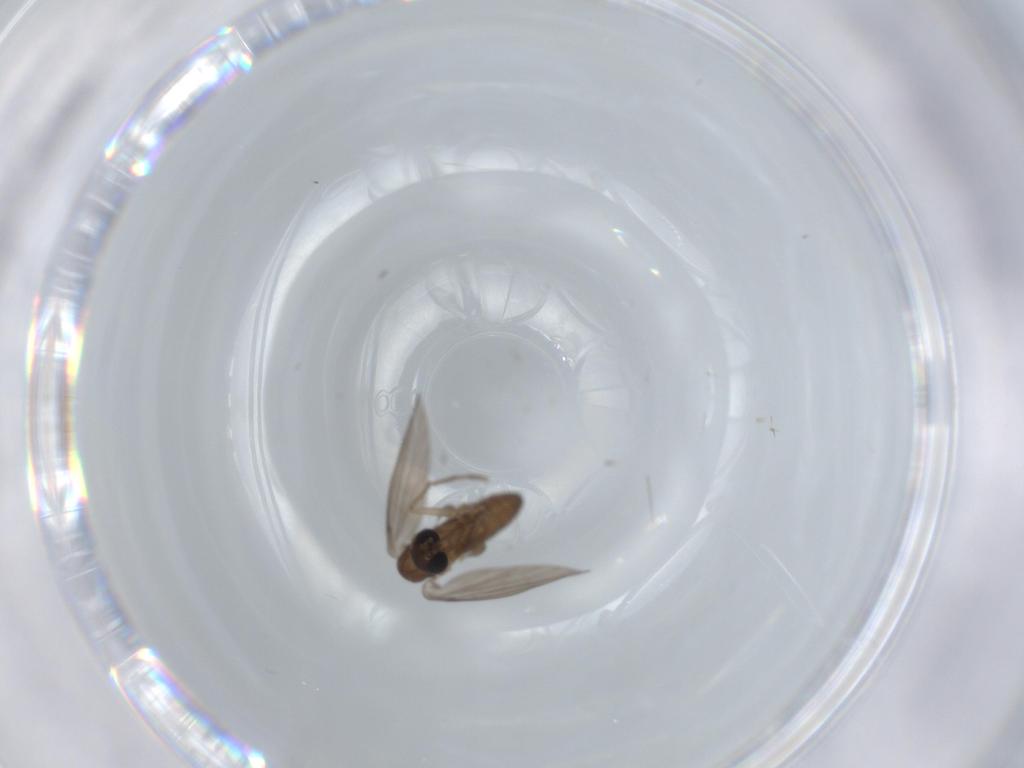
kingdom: Animalia
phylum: Arthropoda
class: Insecta
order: Diptera
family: Psychodidae
